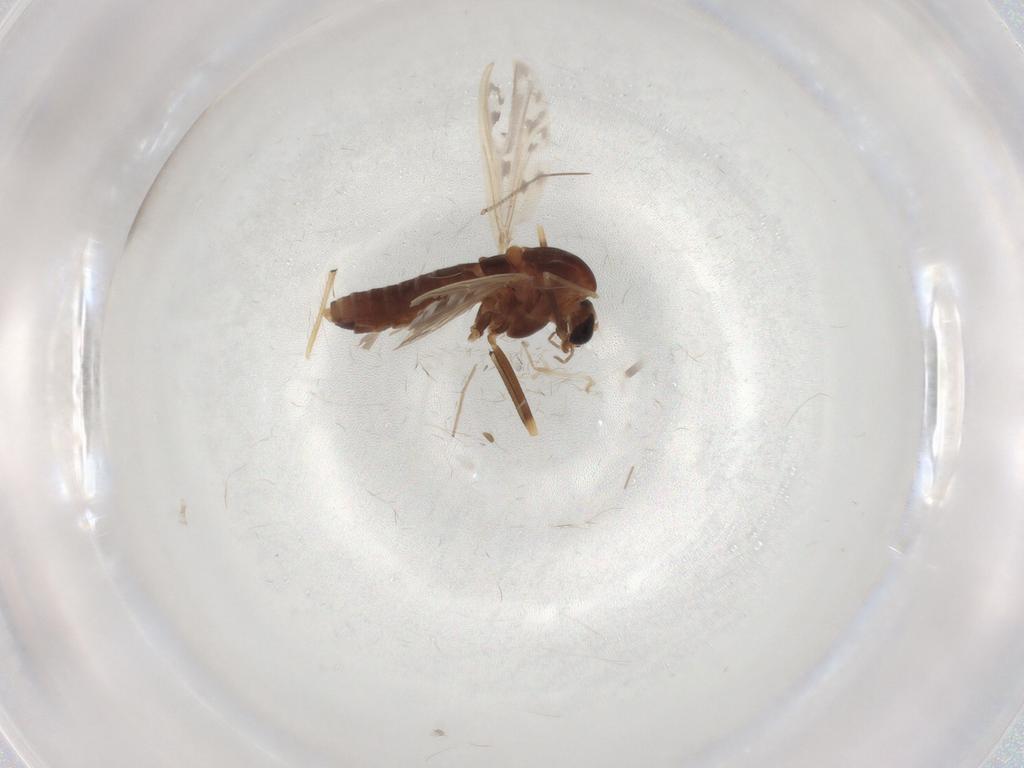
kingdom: Animalia
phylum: Arthropoda
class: Insecta
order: Diptera
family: Chironomidae
